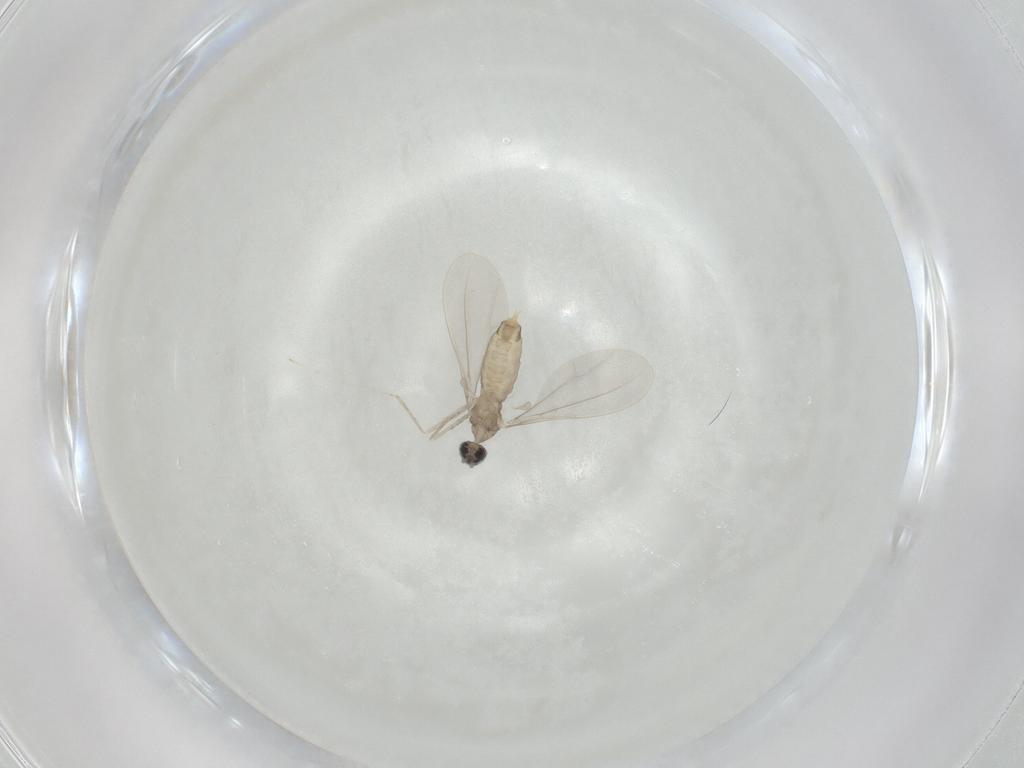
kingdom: Animalia
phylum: Arthropoda
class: Insecta
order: Diptera
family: Cecidomyiidae
